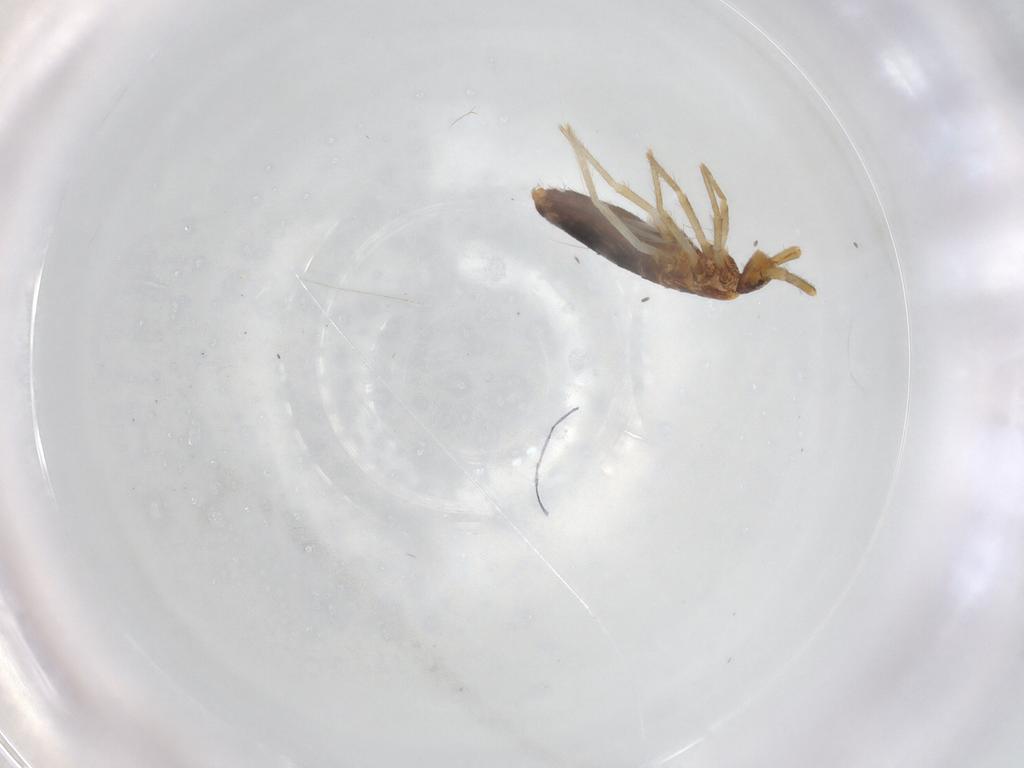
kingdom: Animalia
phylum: Arthropoda
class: Collembola
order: Entomobryomorpha
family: Entomobryidae
